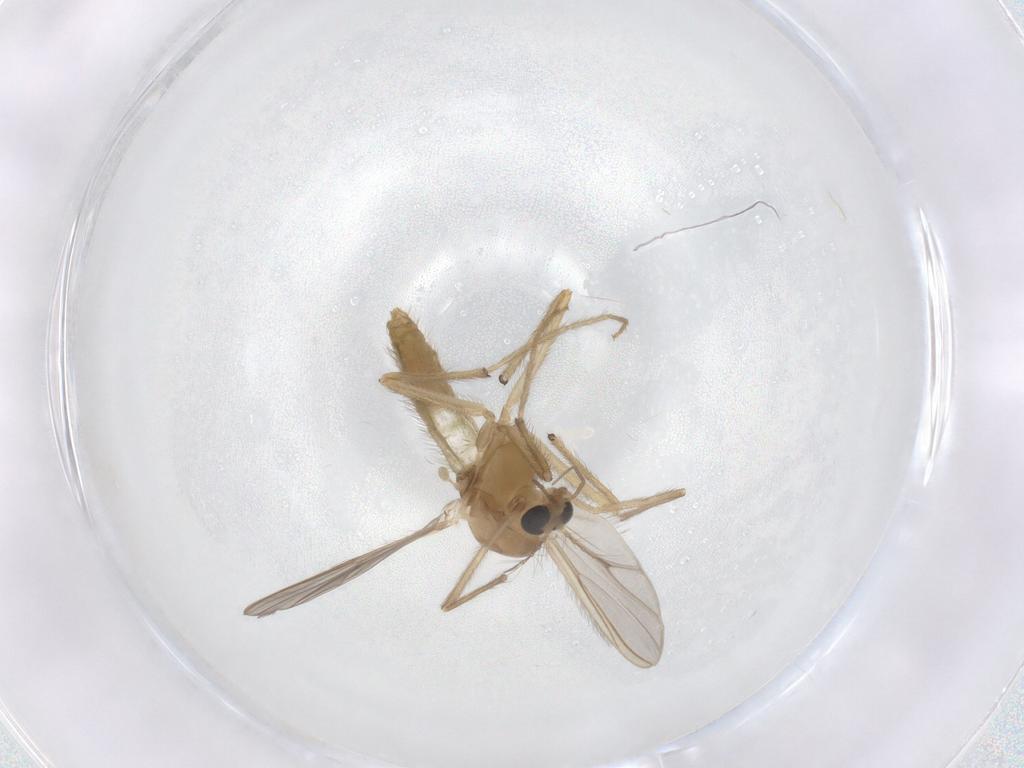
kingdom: Animalia
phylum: Arthropoda
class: Insecta
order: Diptera
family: Chironomidae
